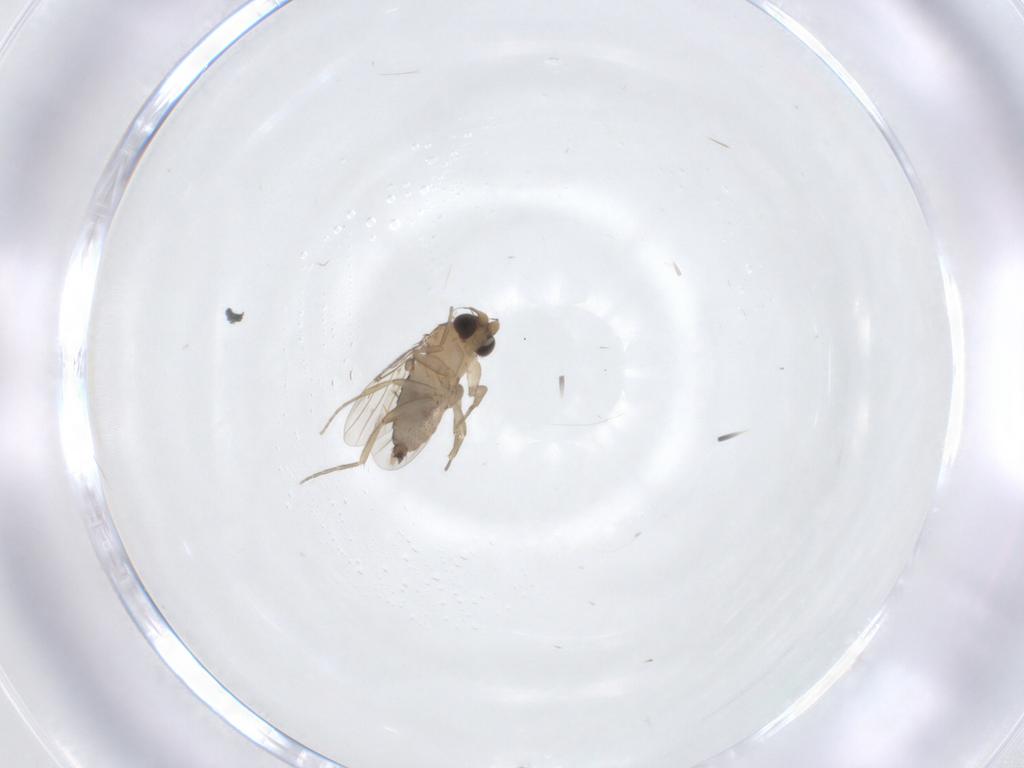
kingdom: Animalia
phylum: Arthropoda
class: Insecta
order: Diptera
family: Phoridae
